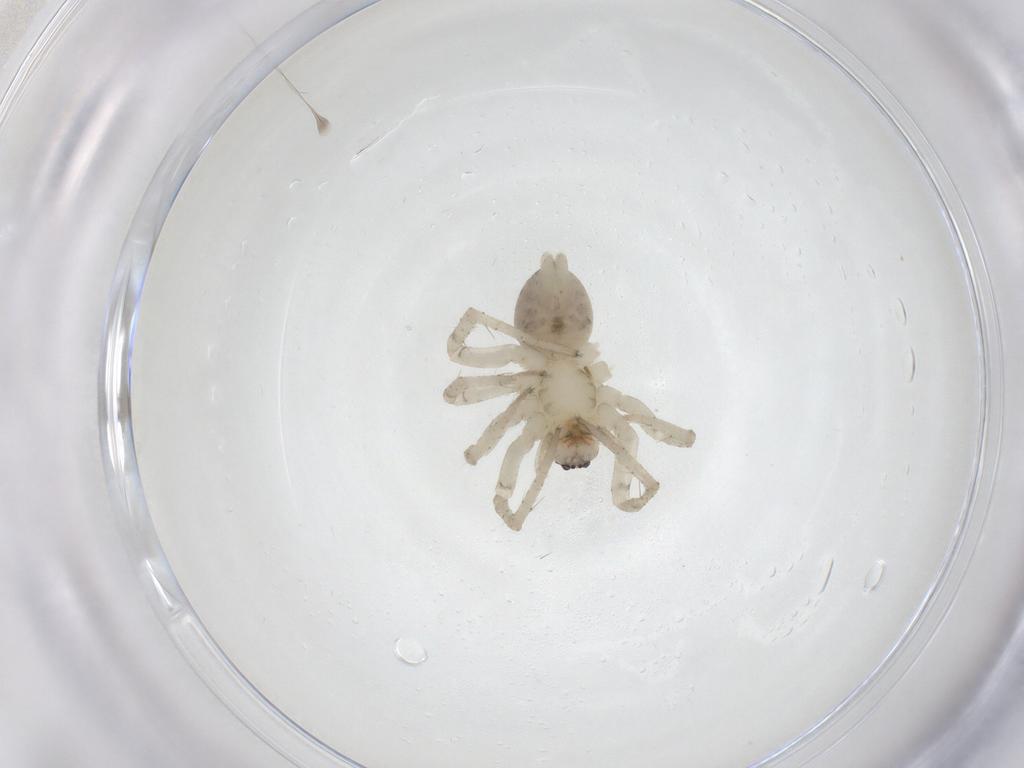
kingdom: Animalia
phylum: Arthropoda
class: Arachnida
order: Araneae
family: Anyphaenidae
